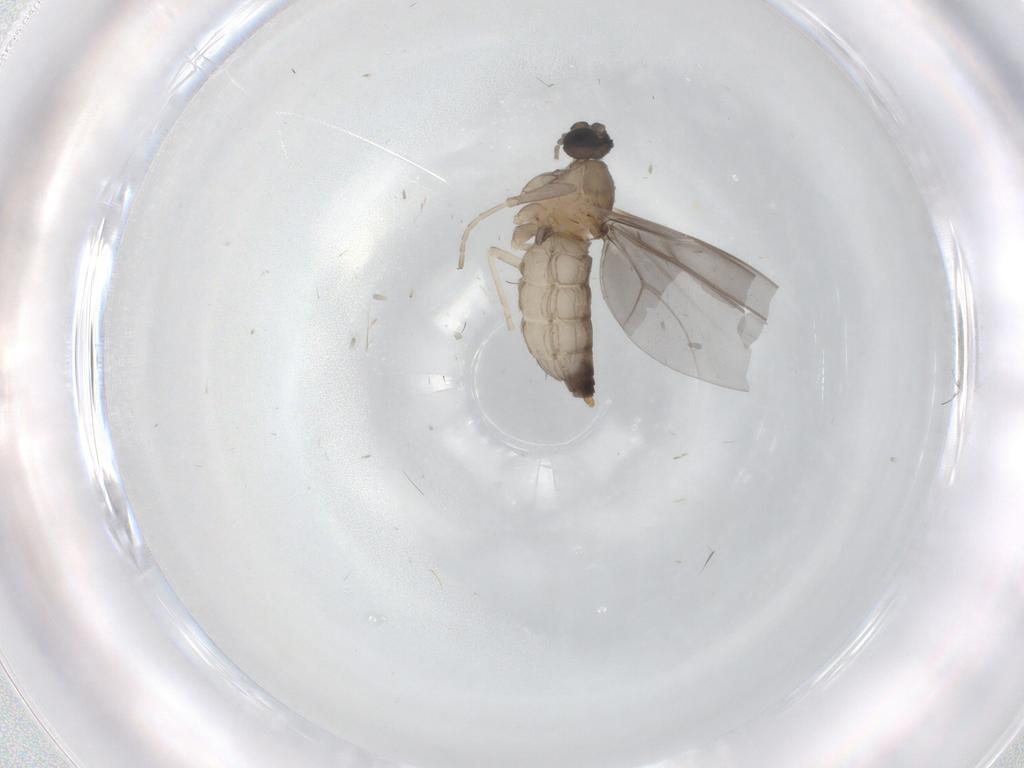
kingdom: Animalia
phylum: Arthropoda
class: Insecta
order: Diptera
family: Cecidomyiidae
